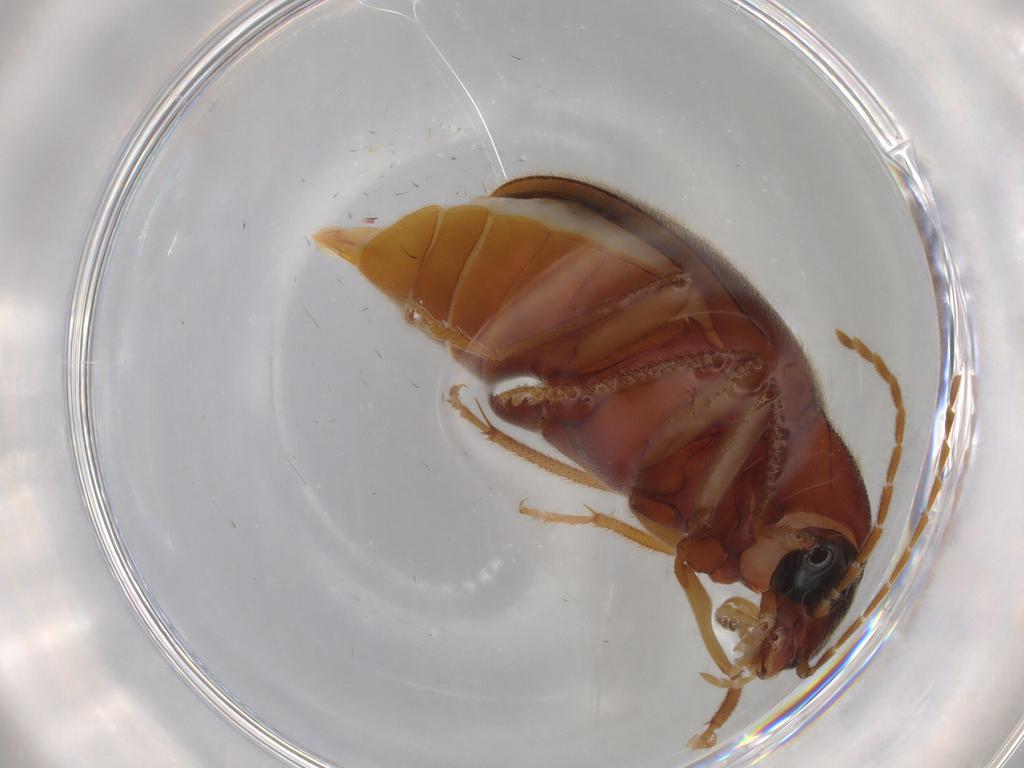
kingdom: Animalia
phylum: Arthropoda
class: Insecta
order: Coleoptera
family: Ptilodactylidae
